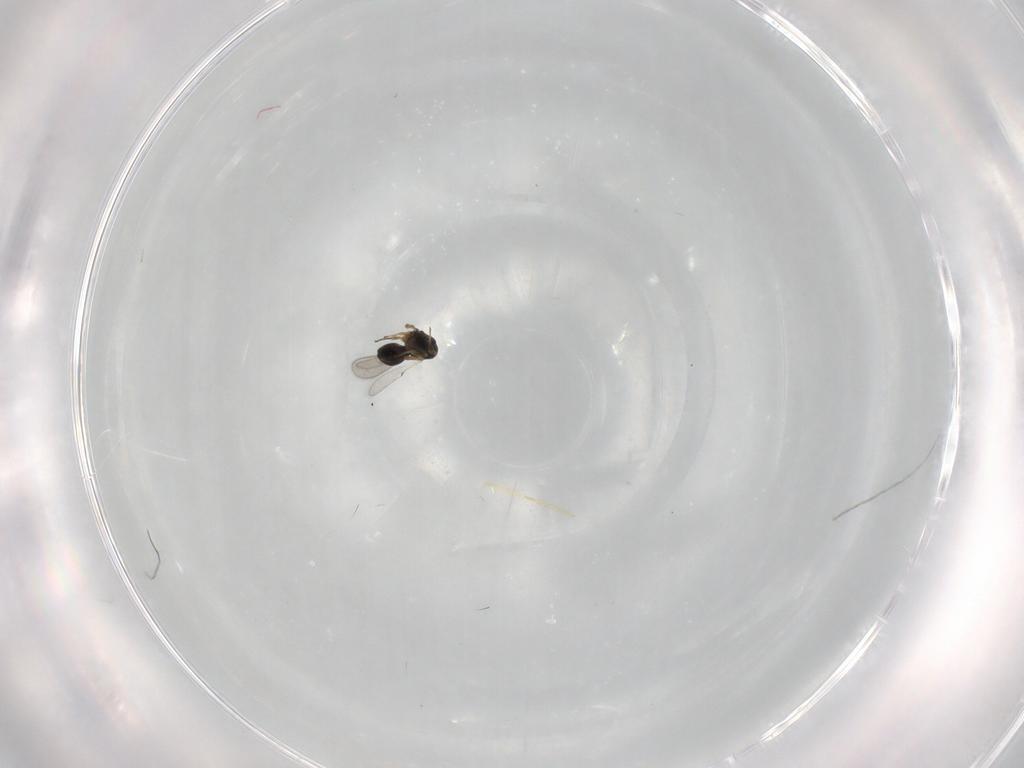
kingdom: Animalia
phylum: Arthropoda
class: Insecta
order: Hymenoptera
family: Scelionidae
